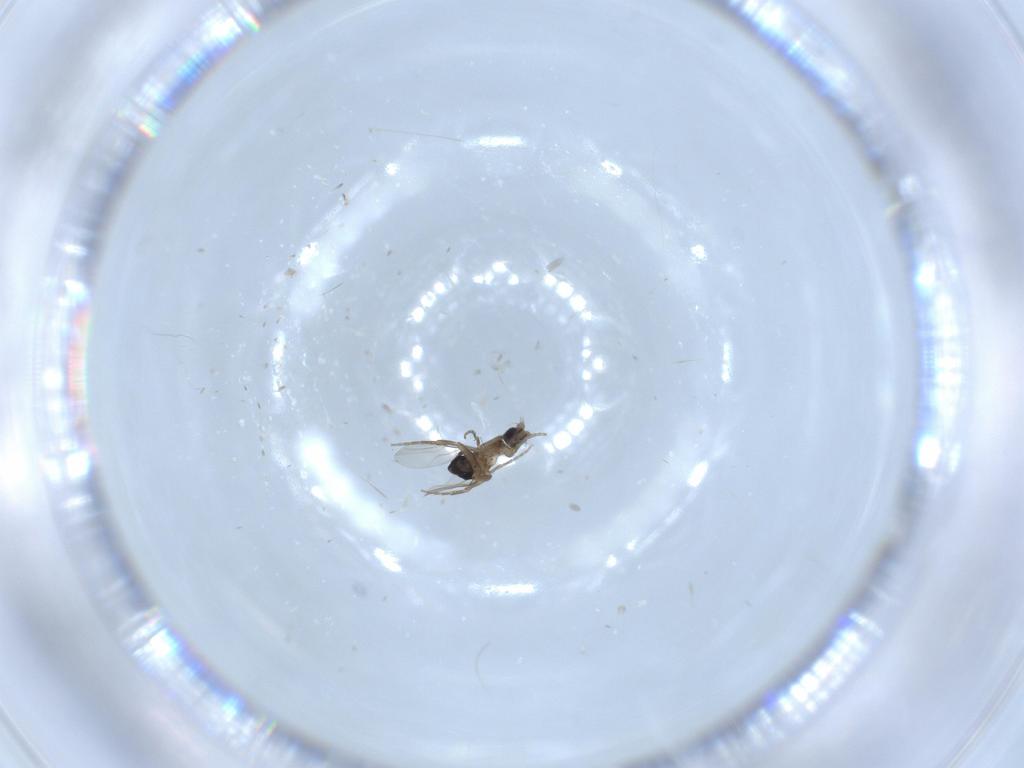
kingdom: Animalia
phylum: Arthropoda
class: Insecta
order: Diptera
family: Phoridae
